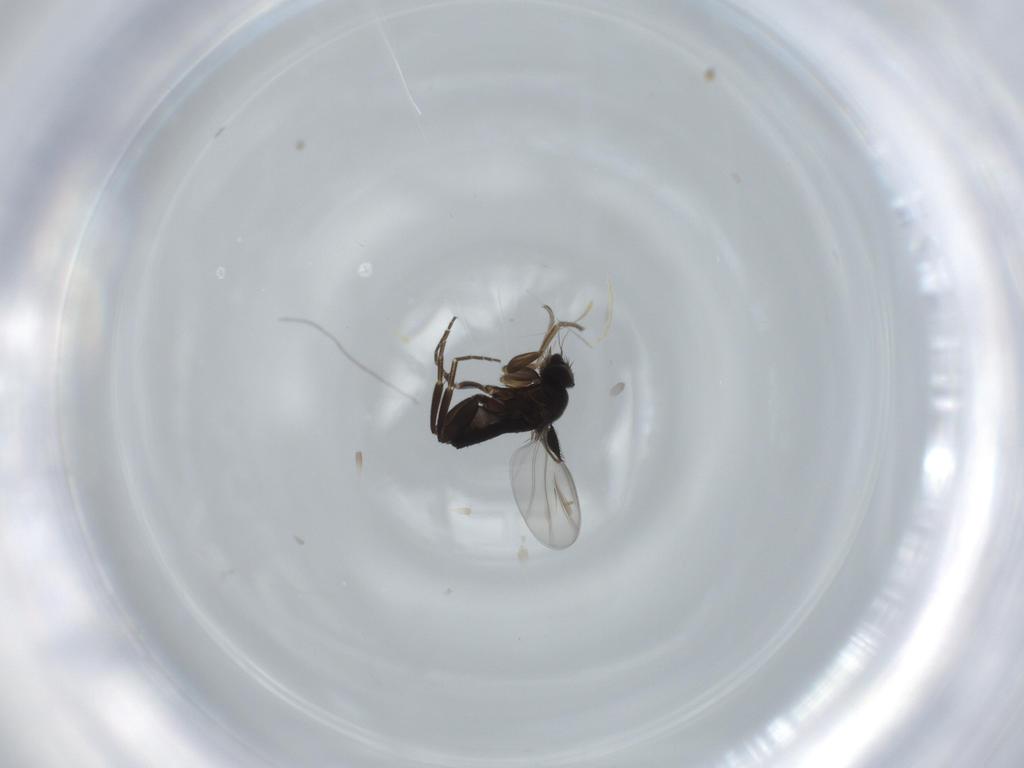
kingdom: Animalia
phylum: Arthropoda
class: Insecta
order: Diptera
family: Phoridae
